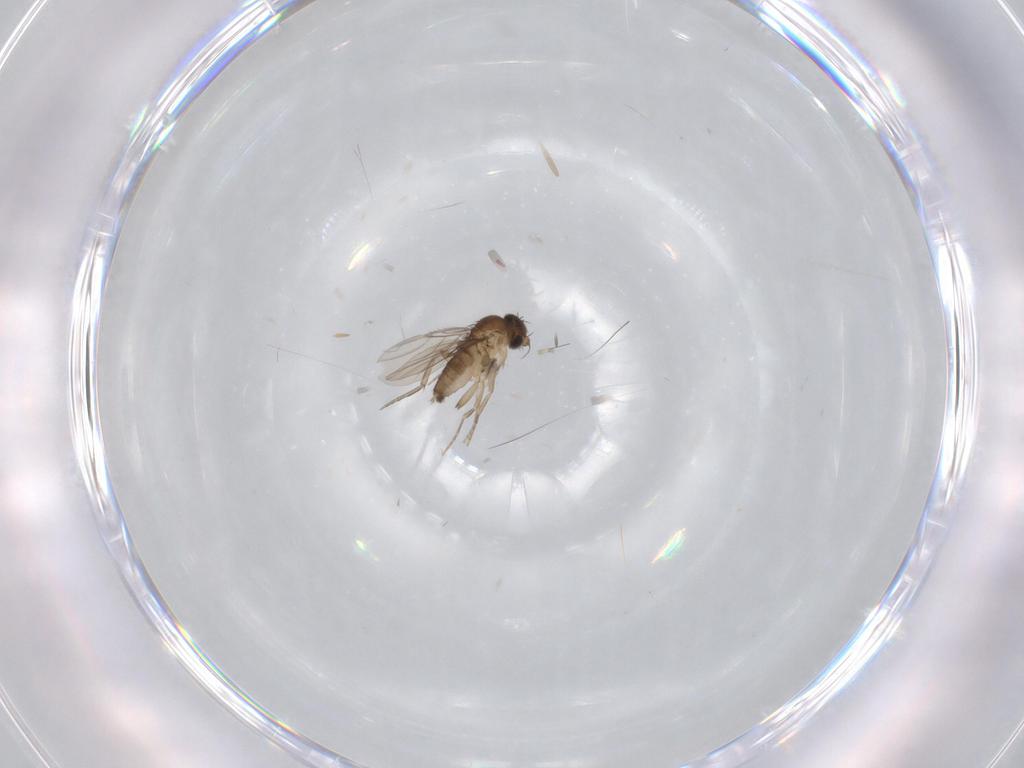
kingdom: Animalia
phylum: Arthropoda
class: Insecta
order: Diptera
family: Phoridae
